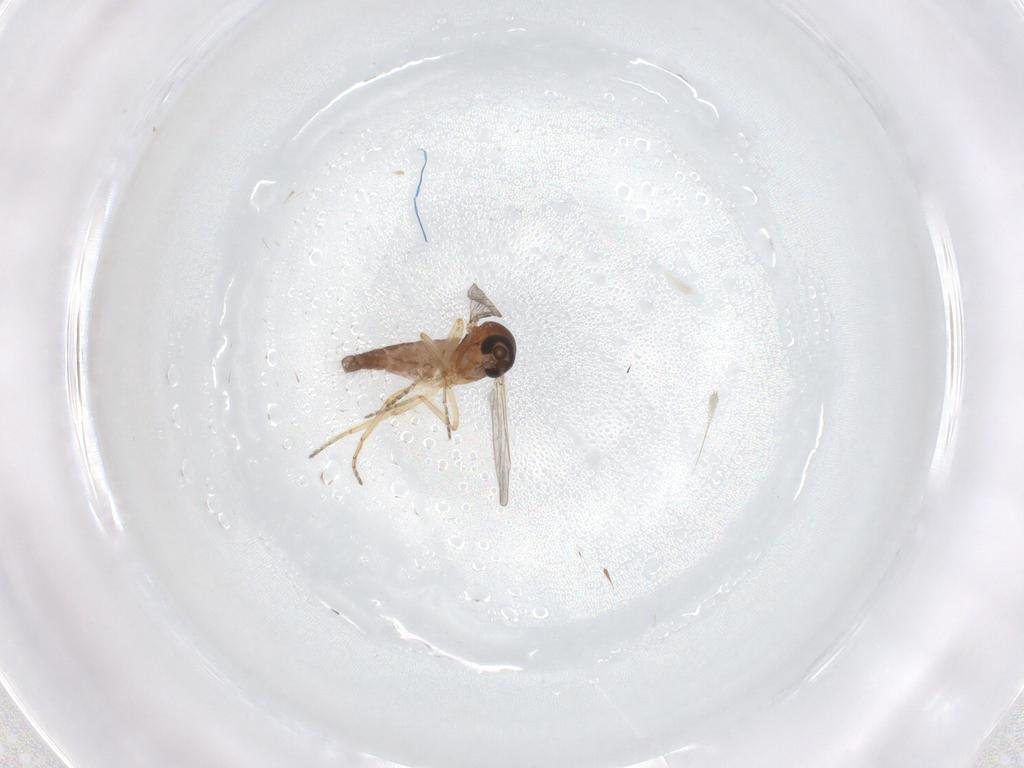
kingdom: Animalia
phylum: Arthropoda
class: Insecta
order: Diptera
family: Ceratopogonidae
